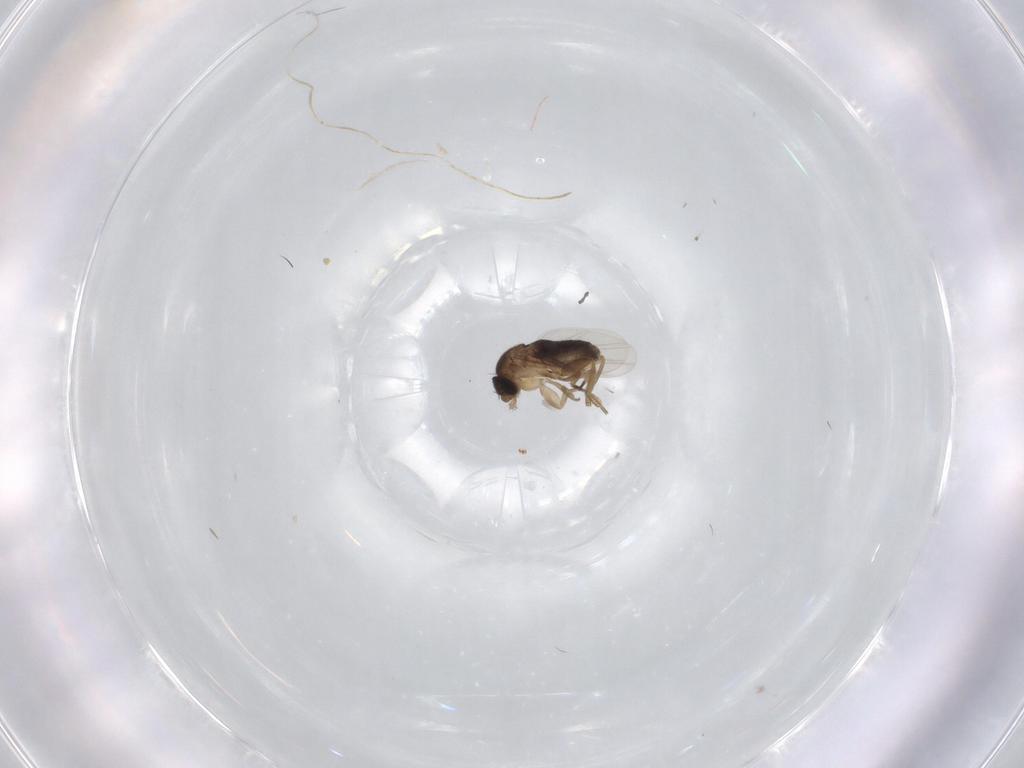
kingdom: Animalia
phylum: Arthropoda
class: Insecta
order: Diptera
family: Phoridae
